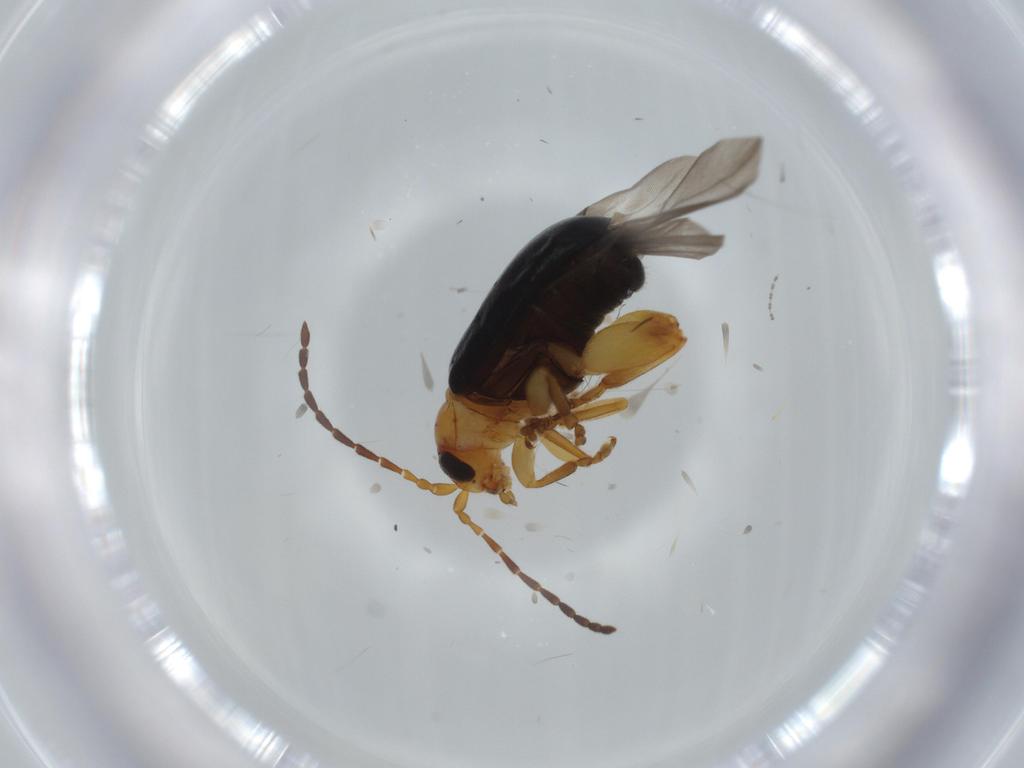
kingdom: Animalia
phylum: Arthropoda
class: Insecta
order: Coleoptera
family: Chrysomelidae
